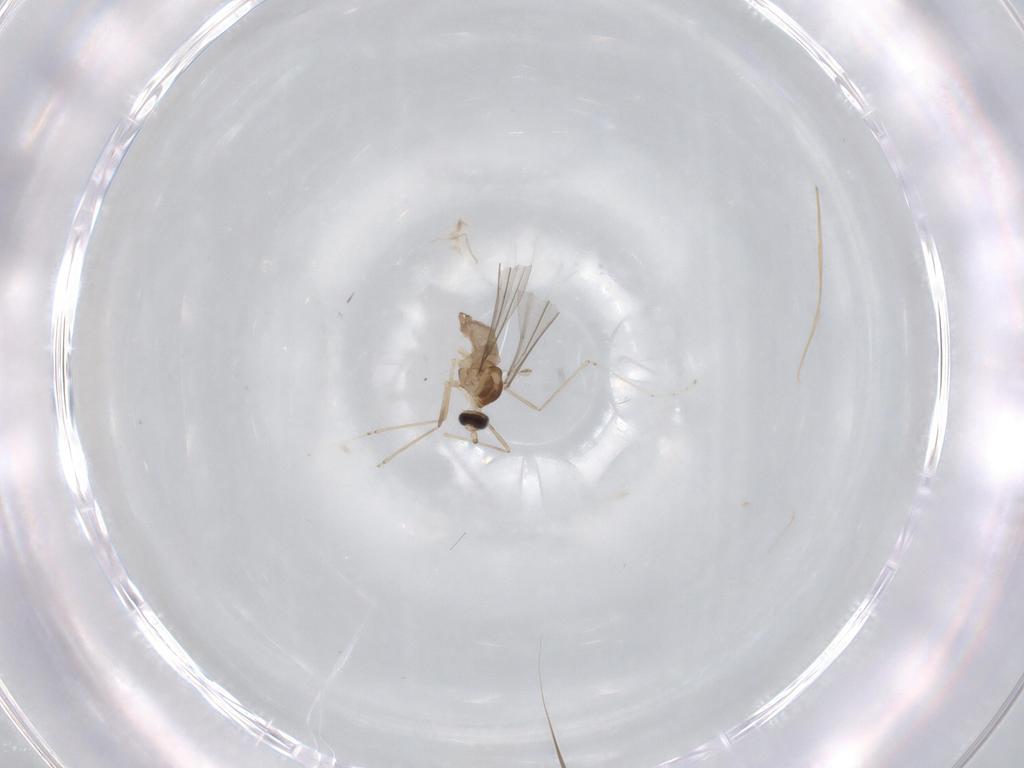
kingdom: Animalia
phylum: Arthropoda
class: Insecta
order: Diptera
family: Cecidomyiidae
